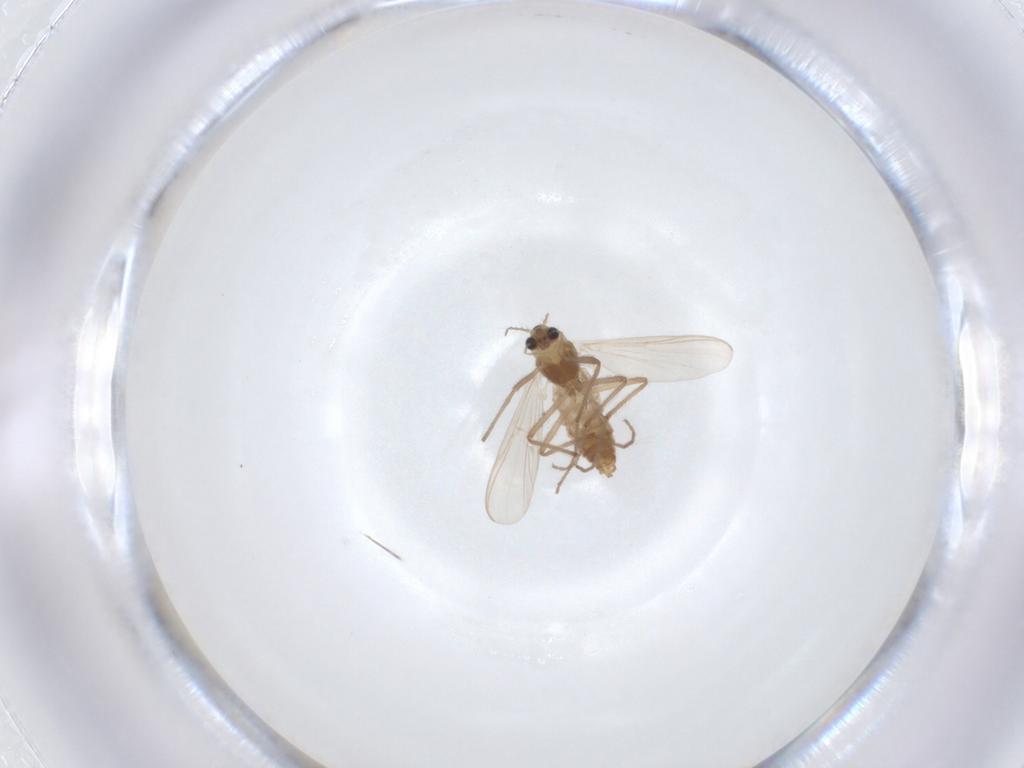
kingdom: Animalia
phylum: Arthropoda
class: Insecta
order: Diptera
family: Chironomidae
